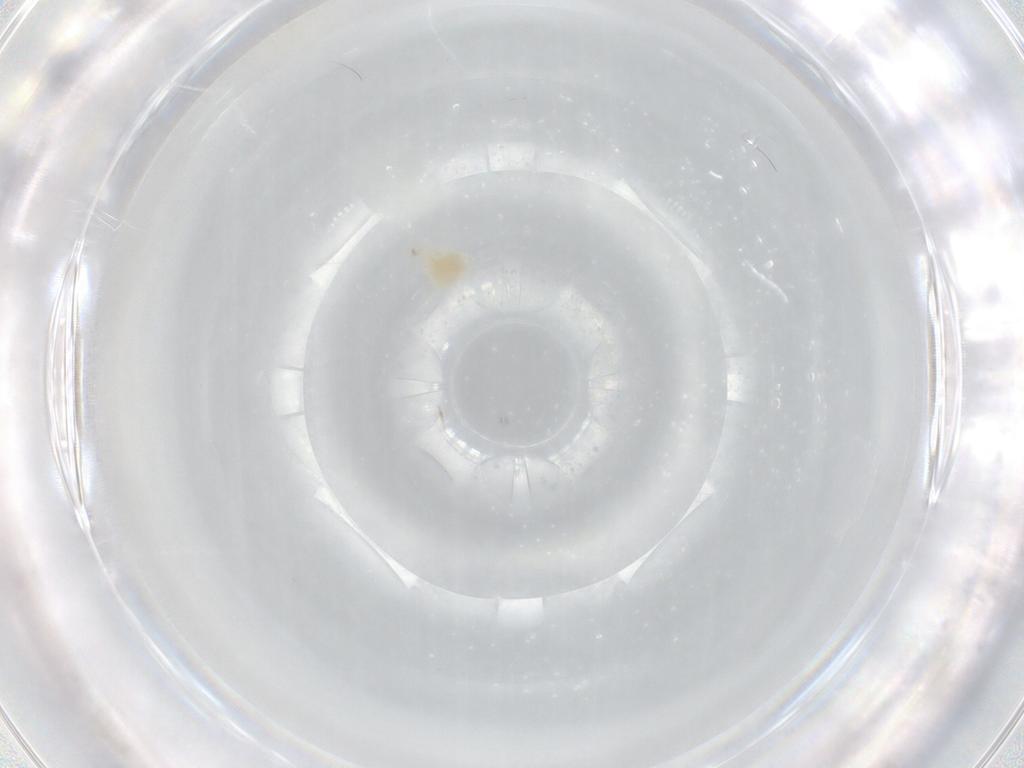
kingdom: Animalia
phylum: Arthropoda
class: Arachnida
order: Trombidiformes
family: Tetranychidae
